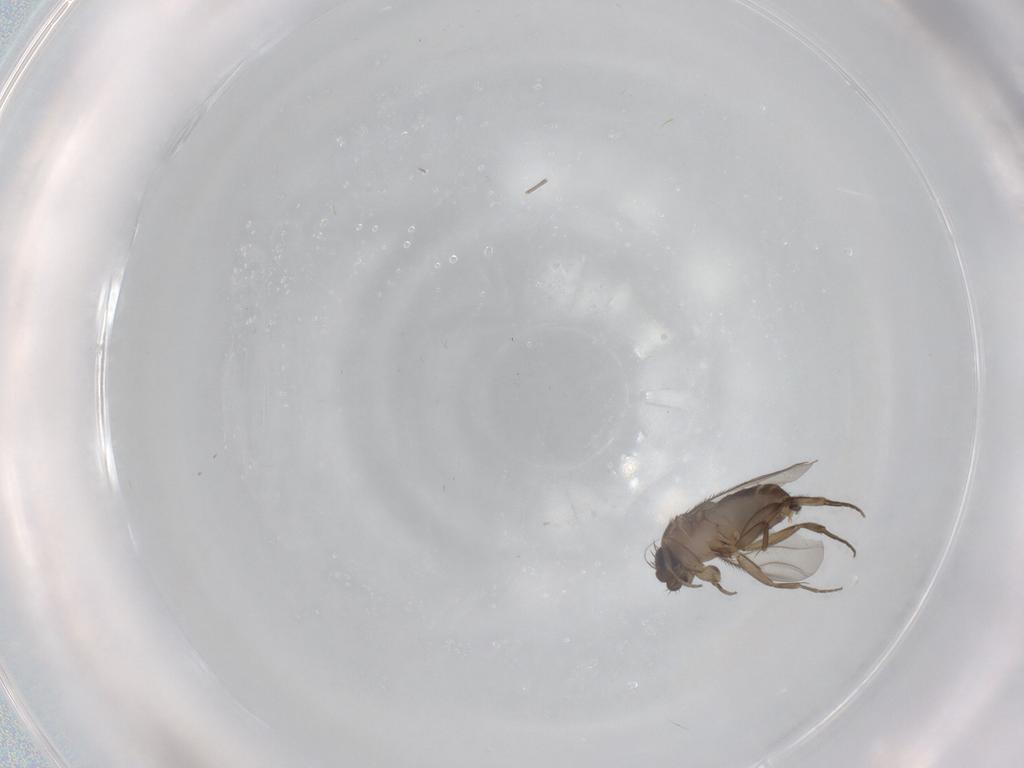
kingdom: Animalia
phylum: Arthropoda
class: Insecta
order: Diptera
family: Phoridae
